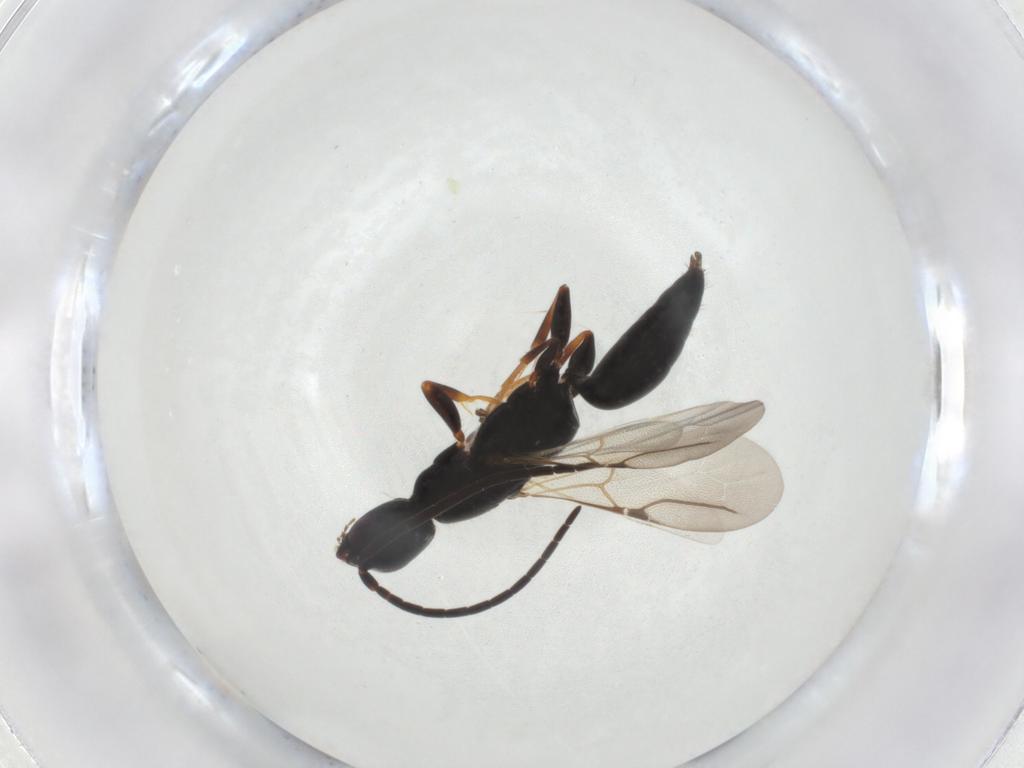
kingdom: Animalia
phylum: Arthropoda
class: Insecta
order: Hymenoptera
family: Bethylidae
